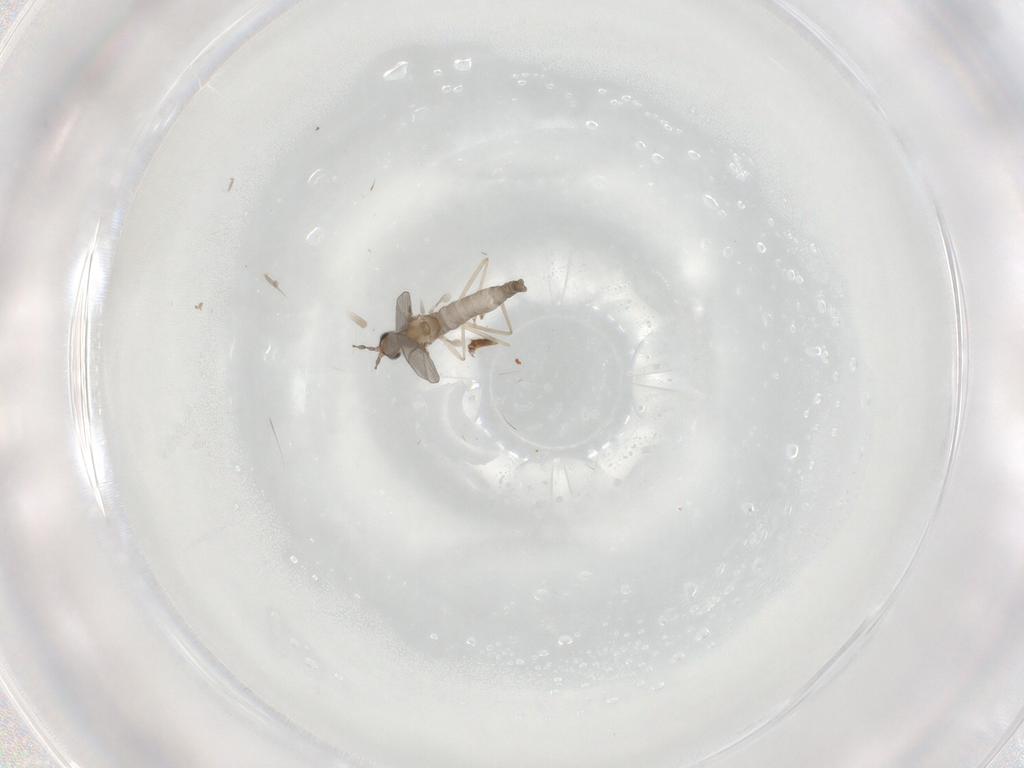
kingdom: Animalia
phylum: Arthropoda
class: Insecta
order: Diptera
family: Cecidomyiidae
